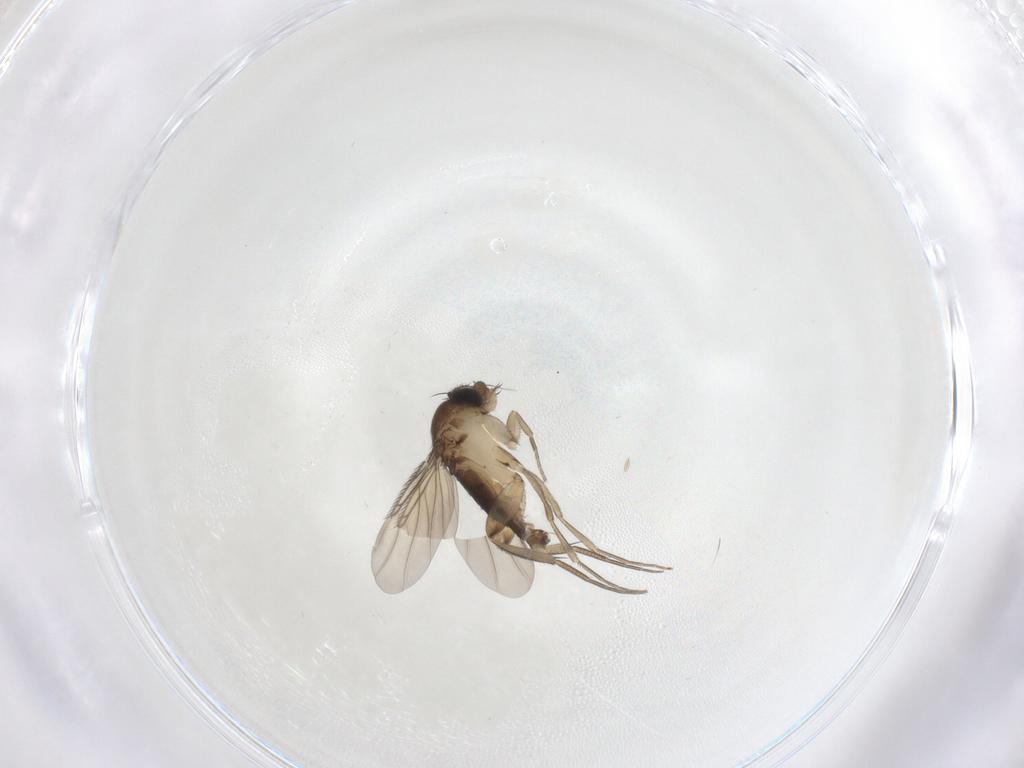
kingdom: Animalia
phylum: Arthropoda
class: Insecta
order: Diptera
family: Phoridae
